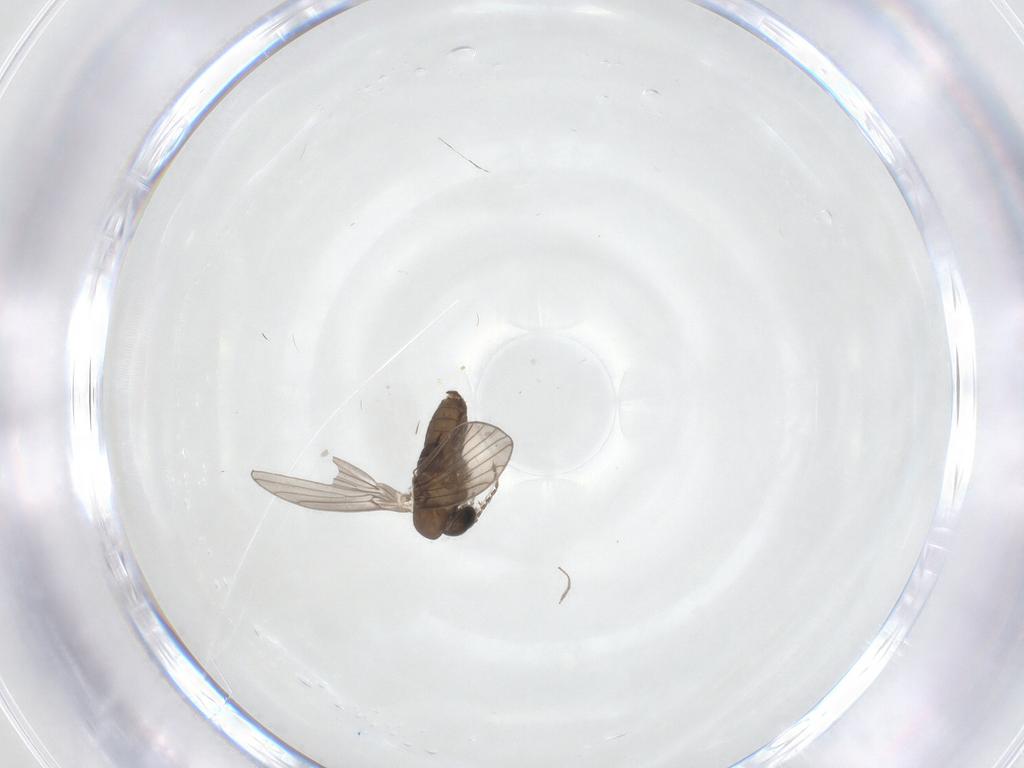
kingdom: Animalia
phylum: Arthropoda
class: Insecta
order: Diptera
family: Psychodidae
